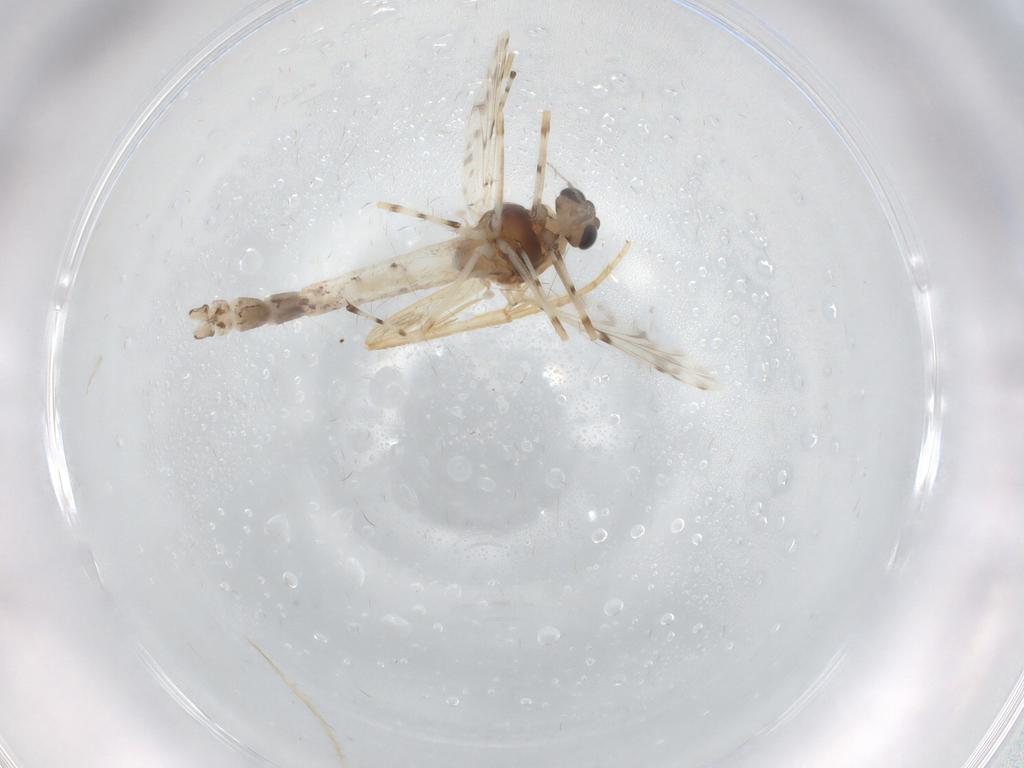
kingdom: Animalia
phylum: Arthropoda
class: Insecta
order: Diptera
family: Chironomidae
